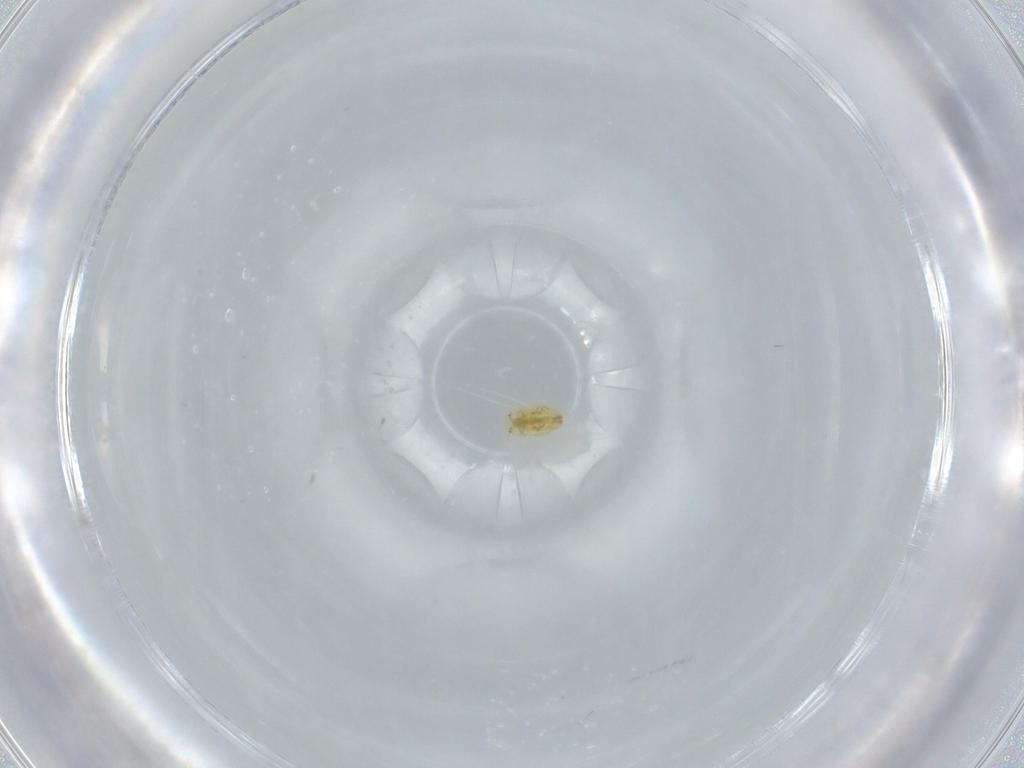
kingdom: Animalia
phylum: Arthropoda
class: Insecta
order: Hemiptera
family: Coccoidea_incertae_sedis
